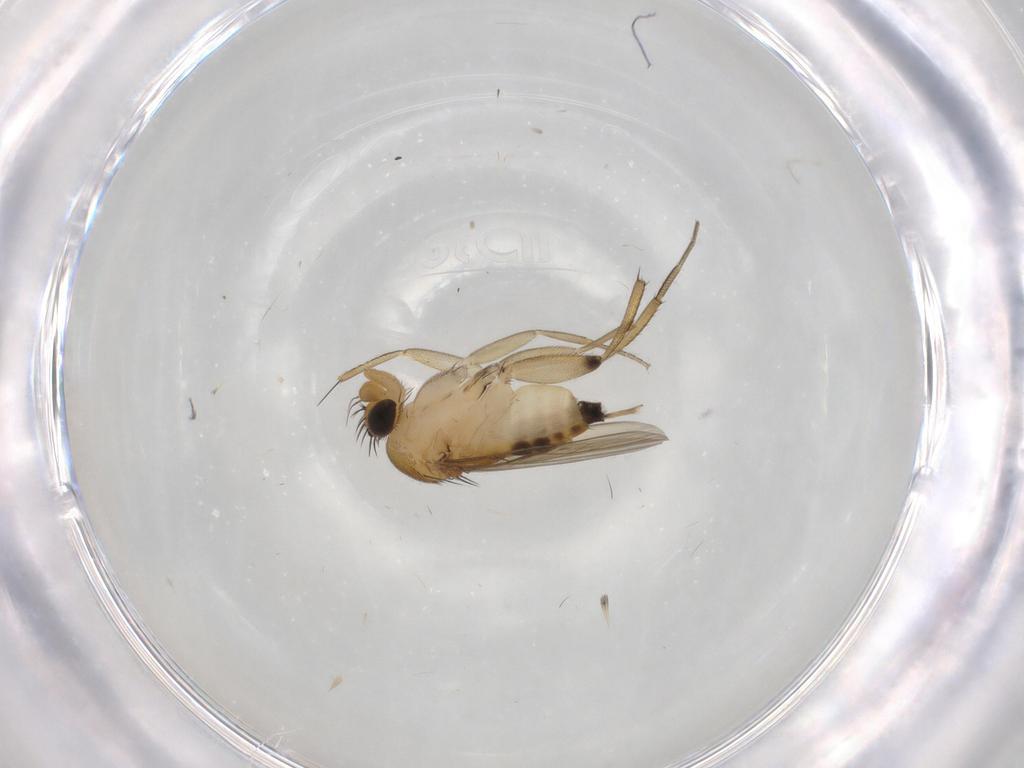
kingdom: Animalia
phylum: Arthropoda
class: Insecta
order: Diptera
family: Phoridae
